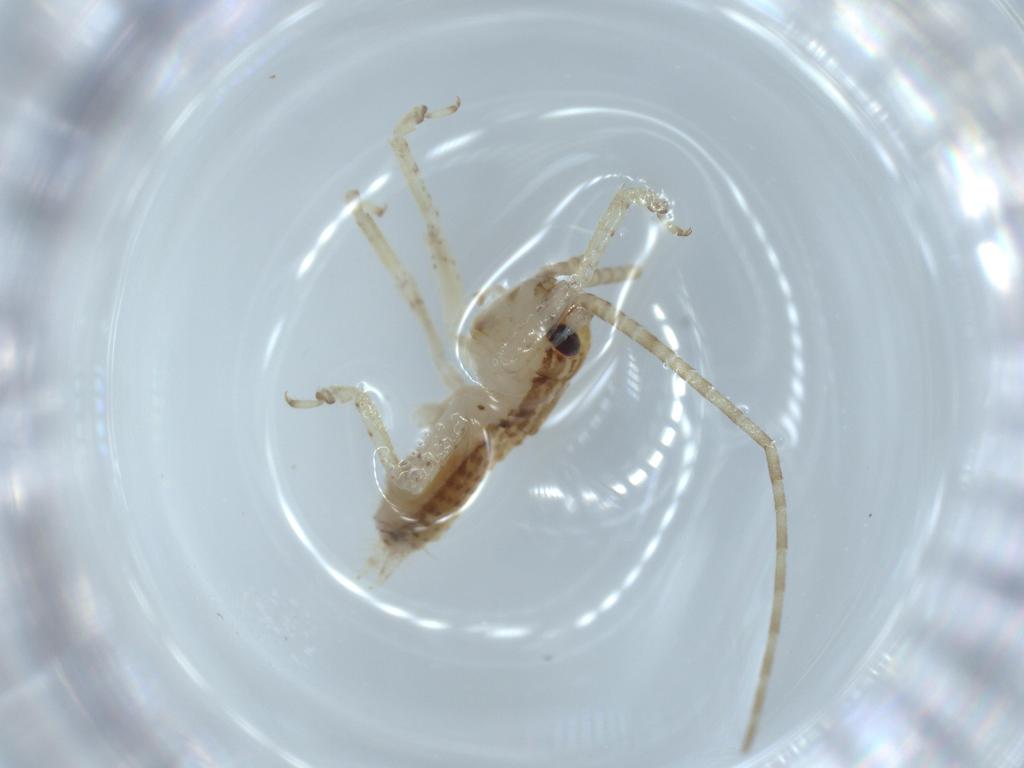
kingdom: Animalia
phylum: Arthropoda
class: Insecta
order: Orthoptera
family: Gryllidae
